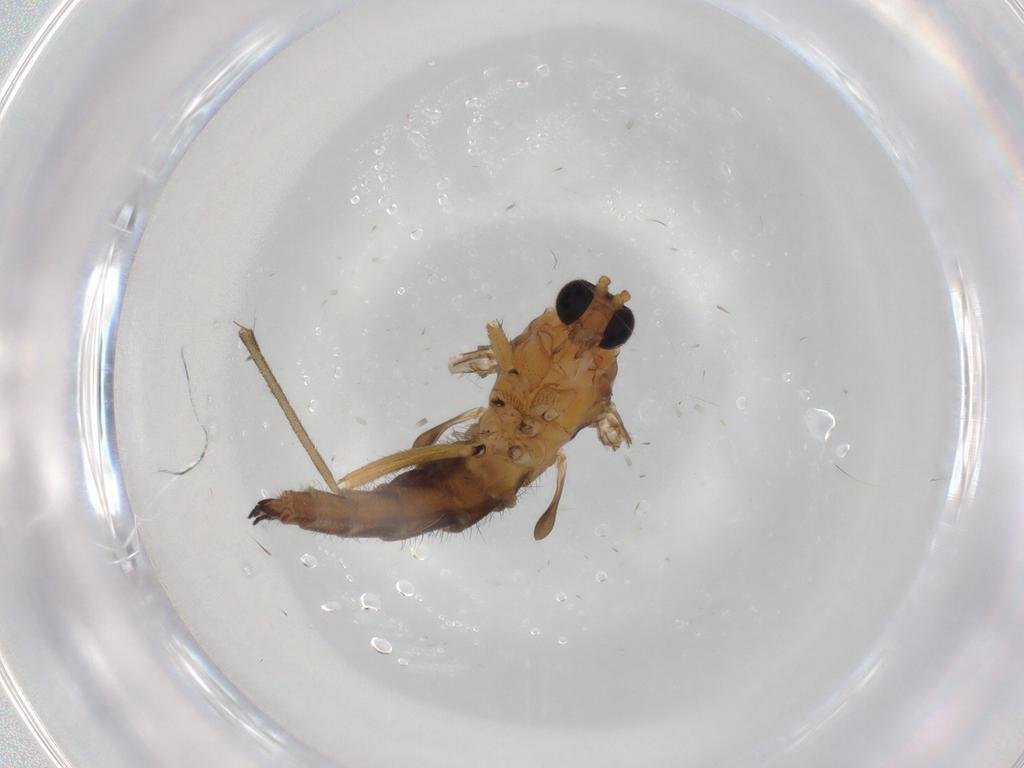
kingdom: Animalia
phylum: Arthropoda
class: Insecta
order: Diptera
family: Sciaridae
